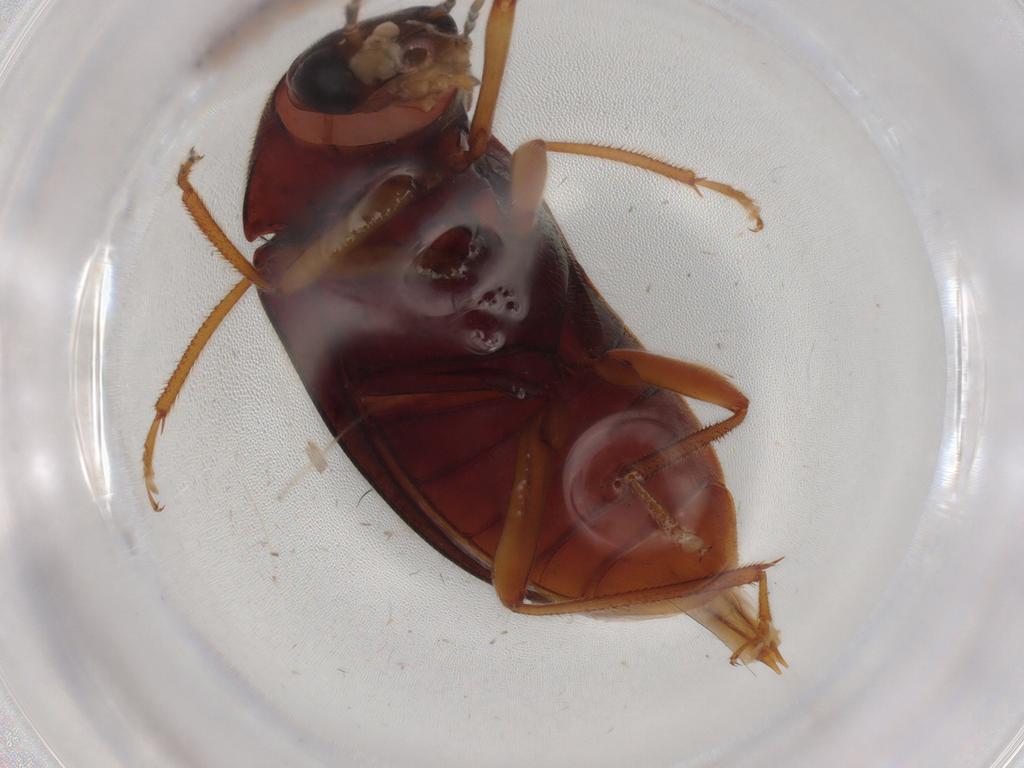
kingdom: Animalia
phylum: Arthropoda
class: Insecta
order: Coleoptera
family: Ptilodactylidae
